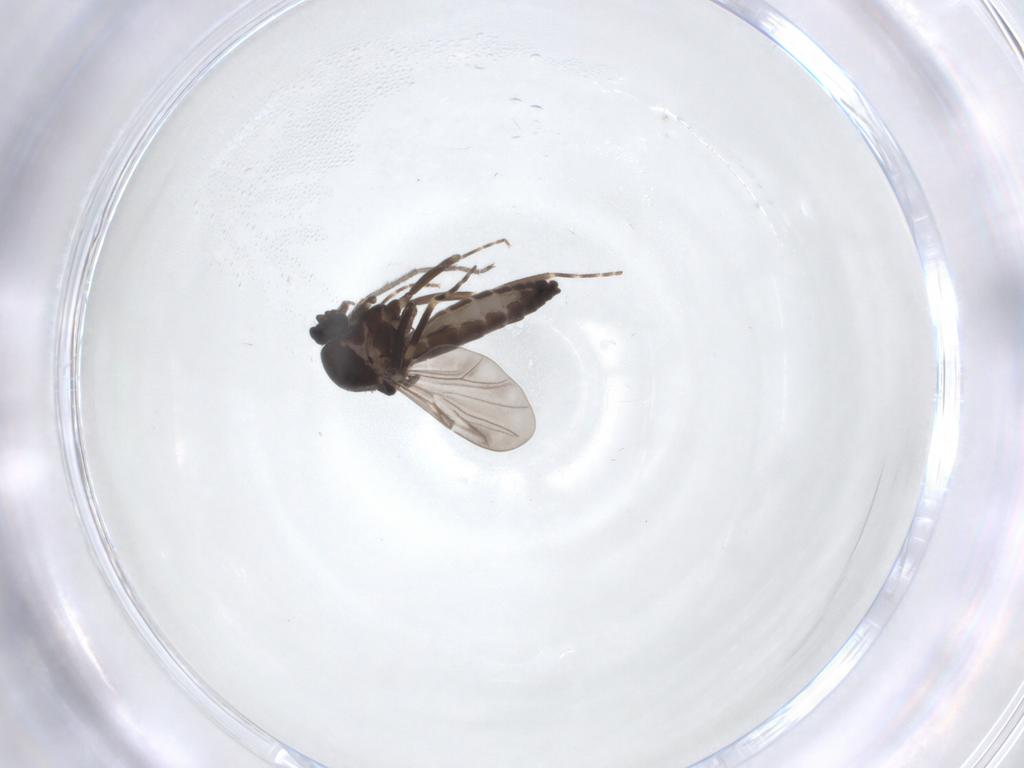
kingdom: Animalia
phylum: Arthropoda
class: Insecta
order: Diptera
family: Ceratopogonidae
